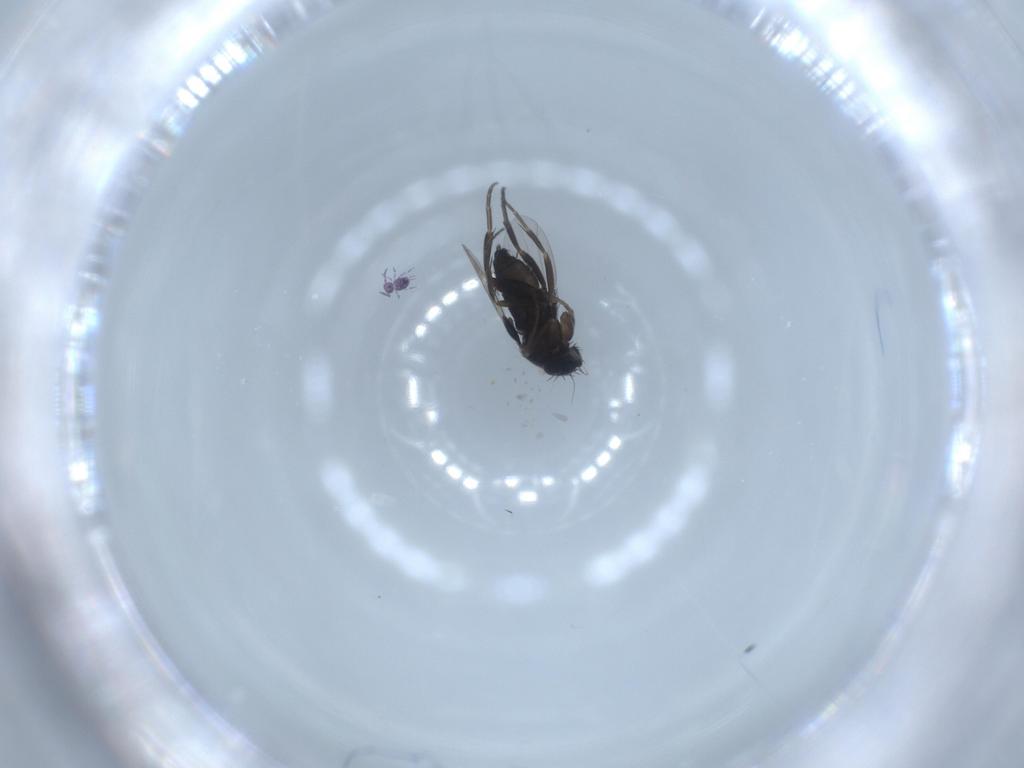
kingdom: Animalia
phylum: Arthropoda
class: Insecta
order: Diptera
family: Phoridae
